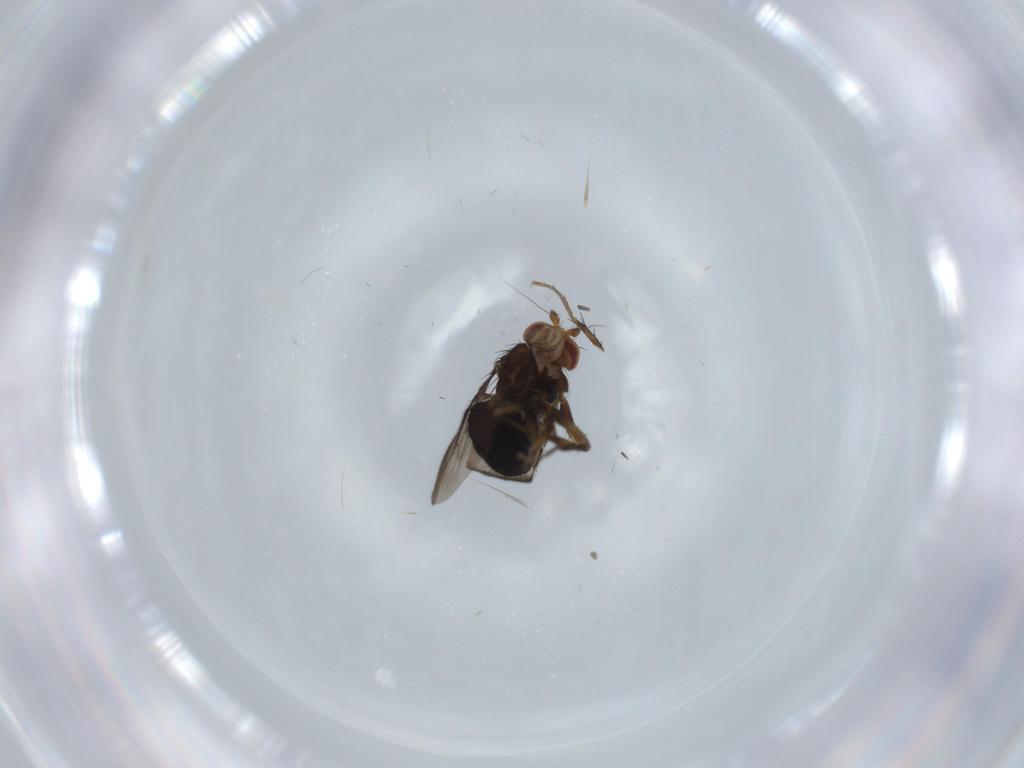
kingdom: Animalia
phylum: Arthropoda
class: Insecta
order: Diptera
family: Sphaeroceridae
